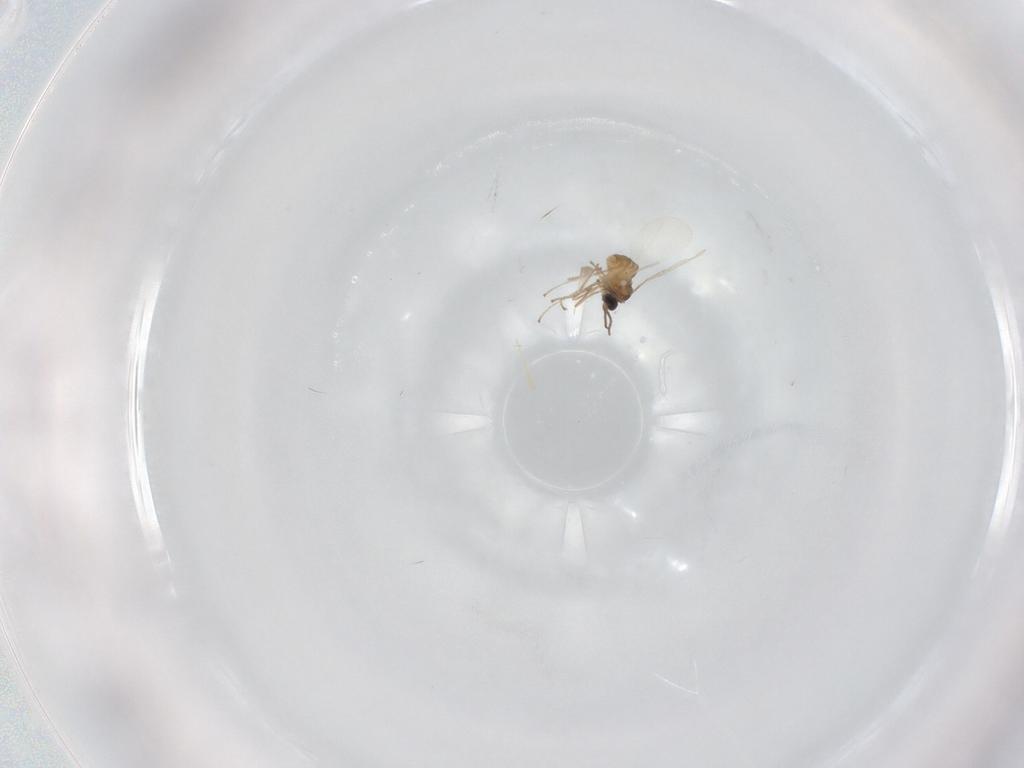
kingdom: Animalia
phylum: Arthropoda
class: Insecta
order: Diptera
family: Cecidomyiidae
